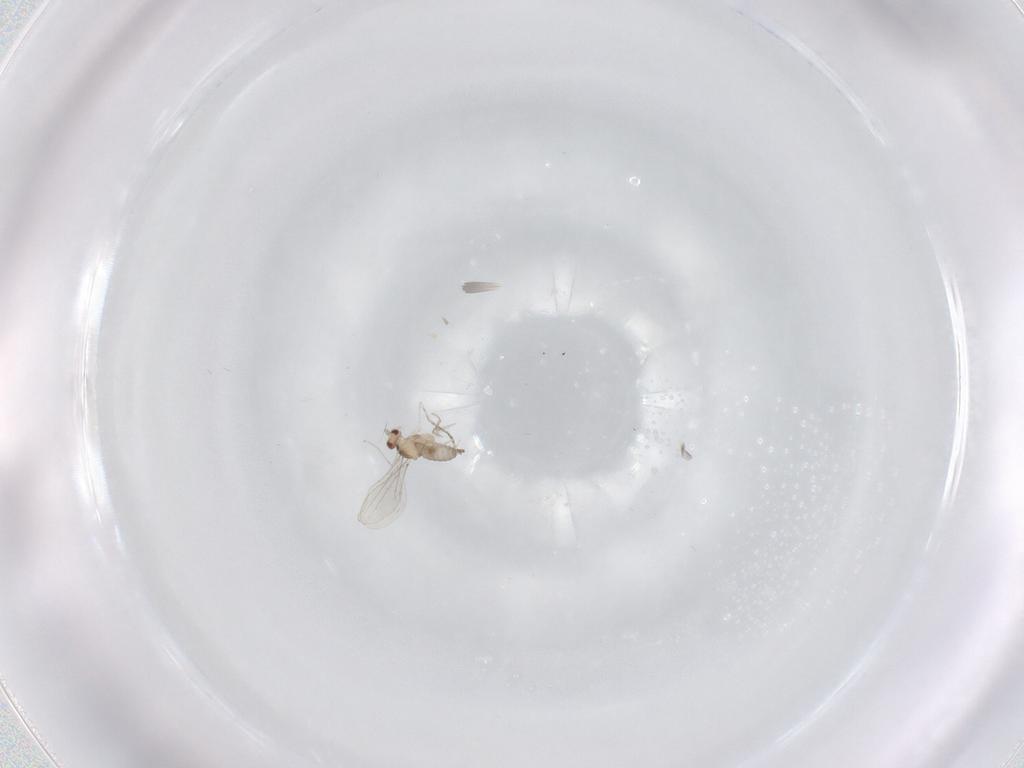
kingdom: Animalia
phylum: Arthropoda
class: Insecta
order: Diptera
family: Cecidomyiidae
